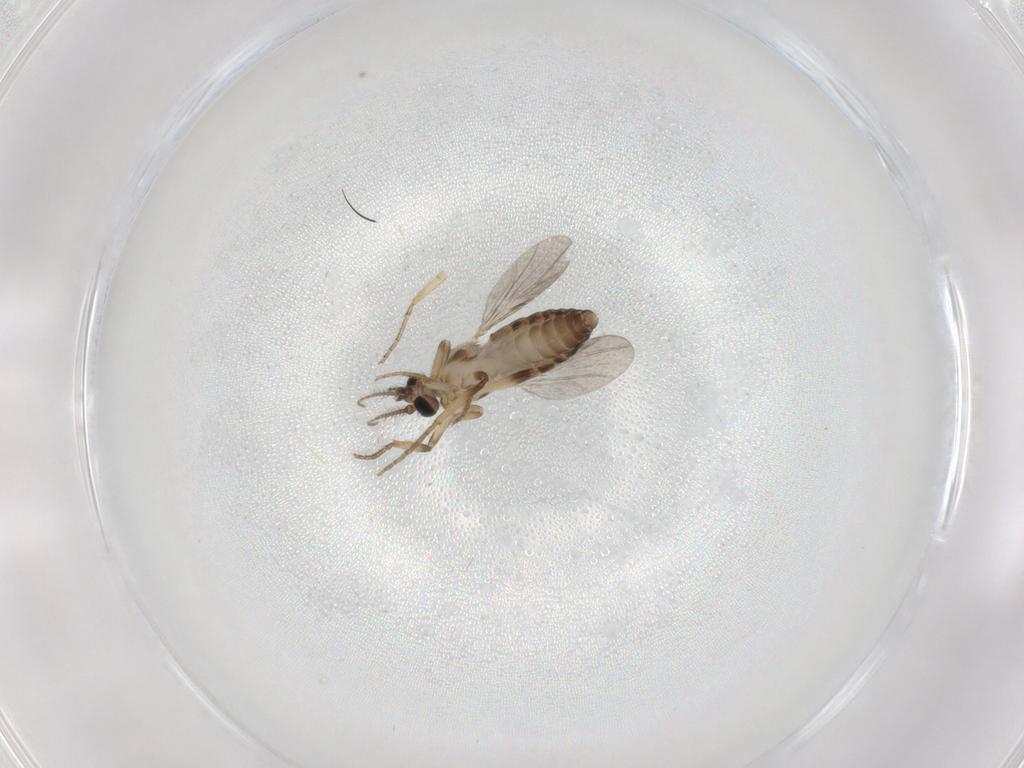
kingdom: Animalia
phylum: Arthropoda
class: Insecta
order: Diptera
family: Ceratopogonidae
